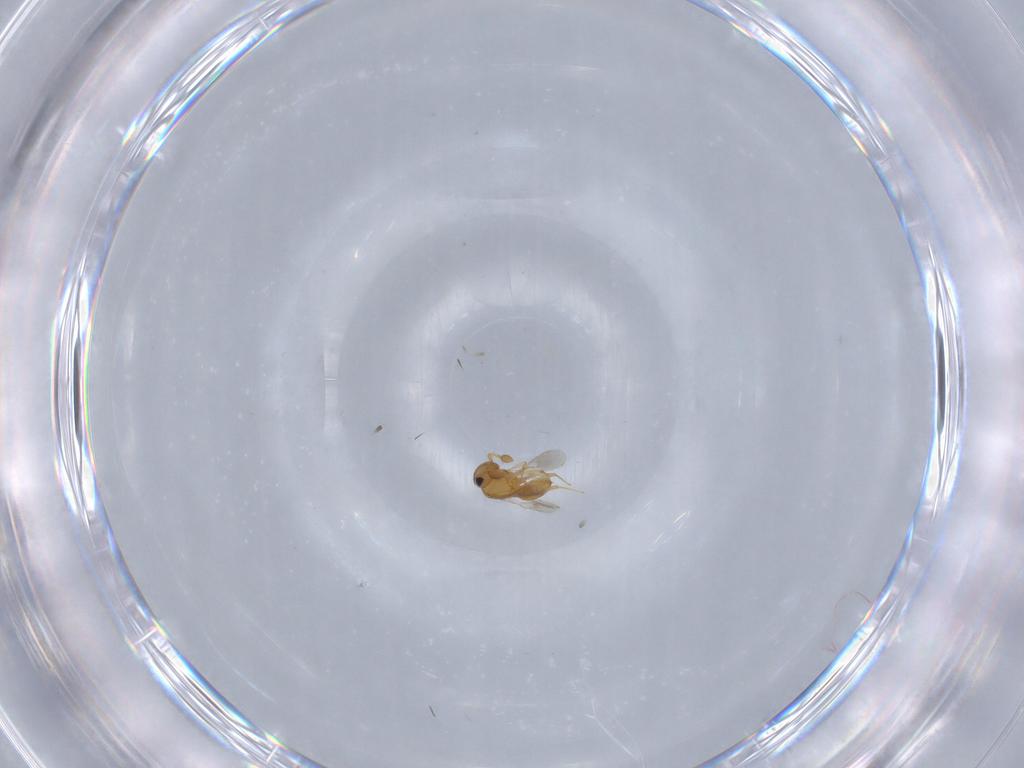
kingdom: Animalia
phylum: Arthropoda
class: Insecta
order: Hymenoptera
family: Scelionidae
